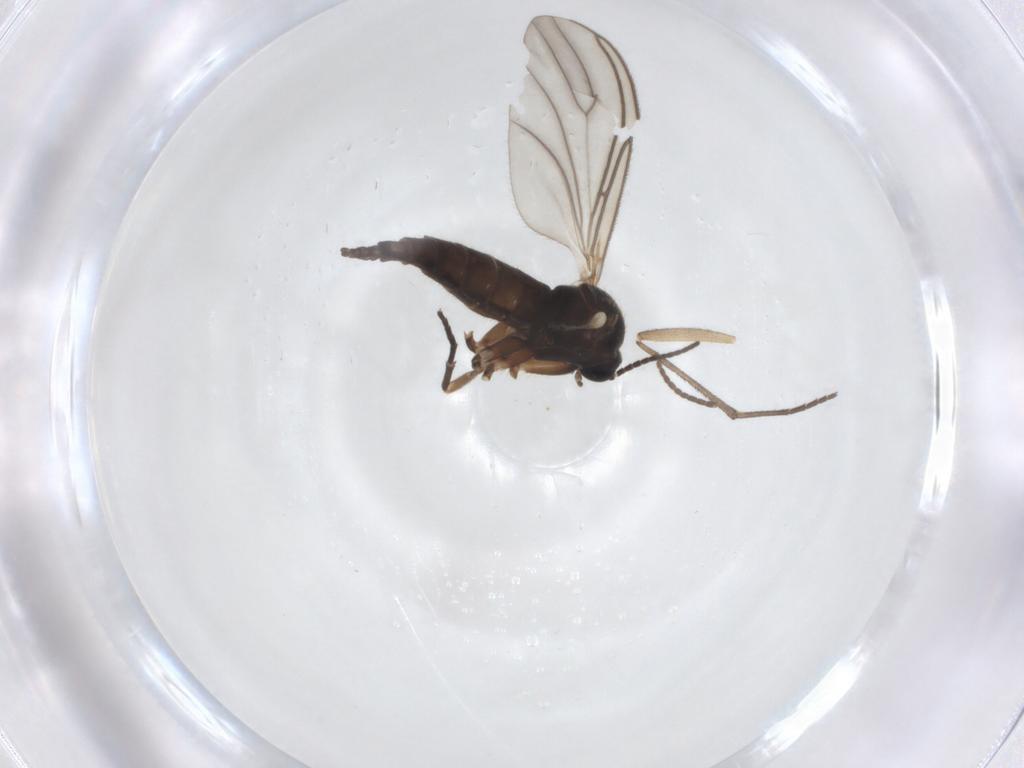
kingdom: Animalia
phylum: Arthropoda
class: Insecta
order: Diptera
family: Sciaridae
